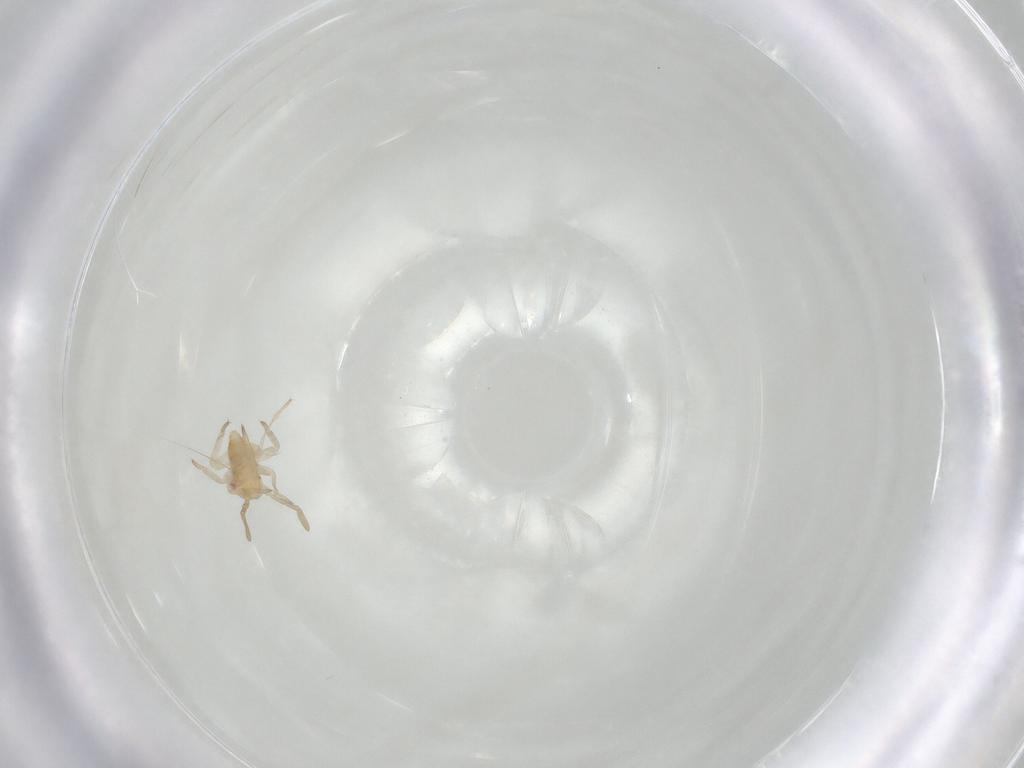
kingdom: Animalia
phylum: Arthropoda
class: Insecta
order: Hemiptera
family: Miridae
